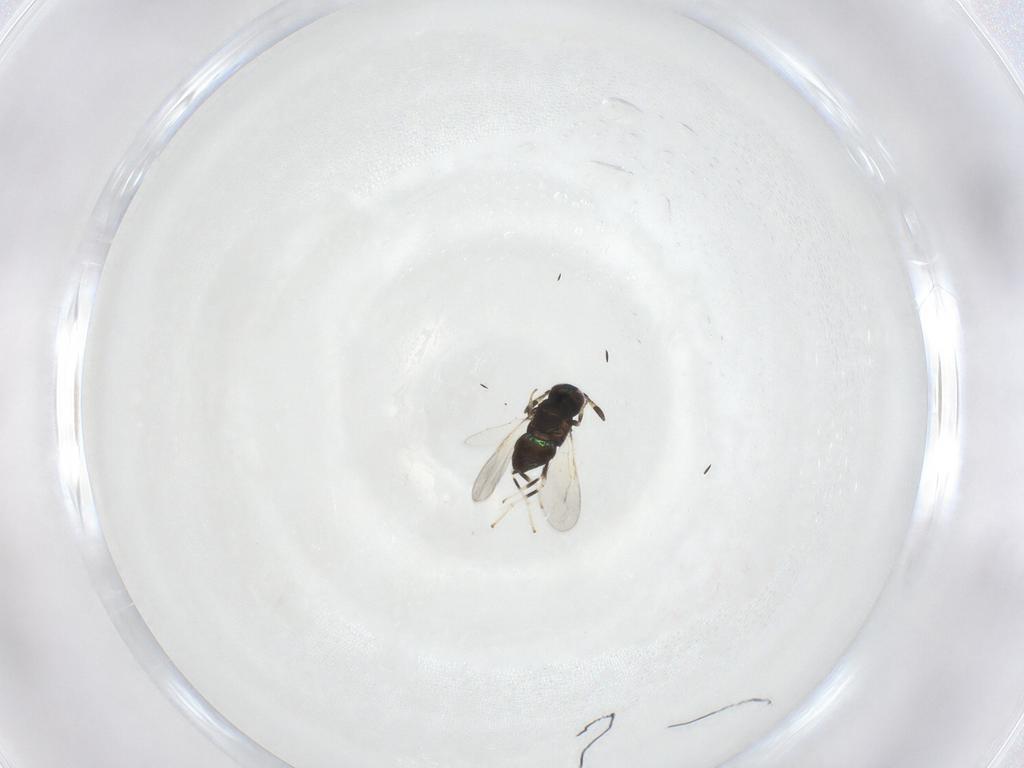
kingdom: Animalia
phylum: Arthropoda
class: Insecta
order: Hymenoptera
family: Encyrtidae
